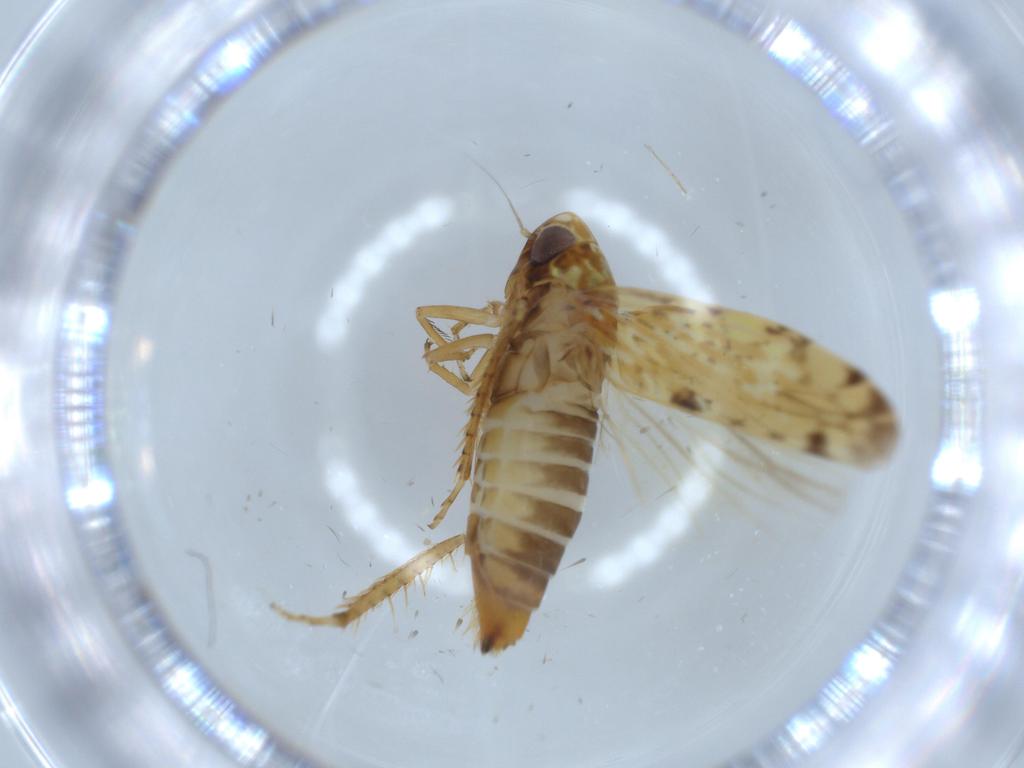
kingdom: Animalia
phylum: Arthropoda
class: Insecta
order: Hemiptera
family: Cicadellidae
